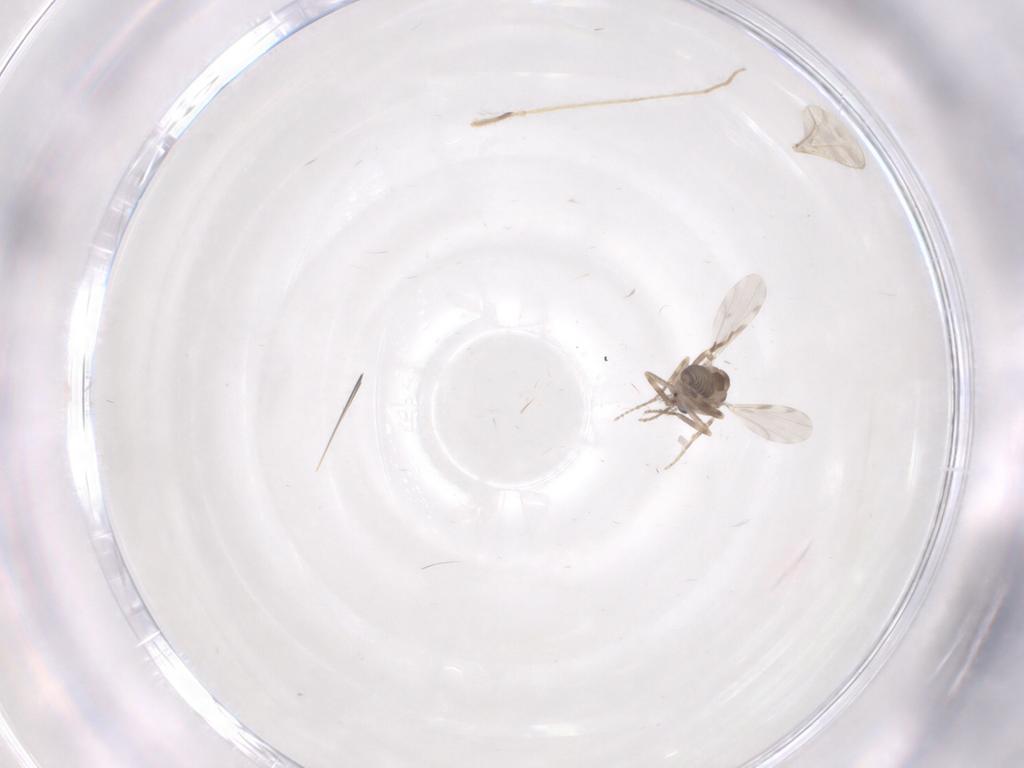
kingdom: Animalia
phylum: Arthropoda
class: Insecta
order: Diptera
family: Ceratopogonidae
